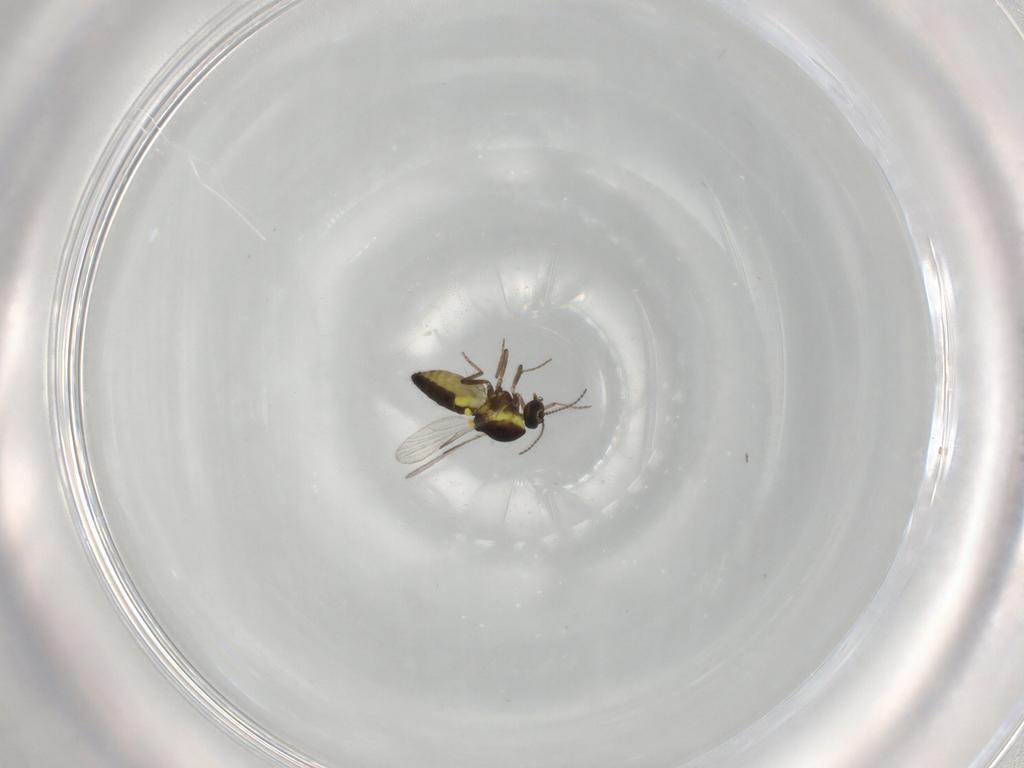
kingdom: Animalia
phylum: Arthropoda
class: Insecta
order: Diptera
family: Ceratopogonidae
